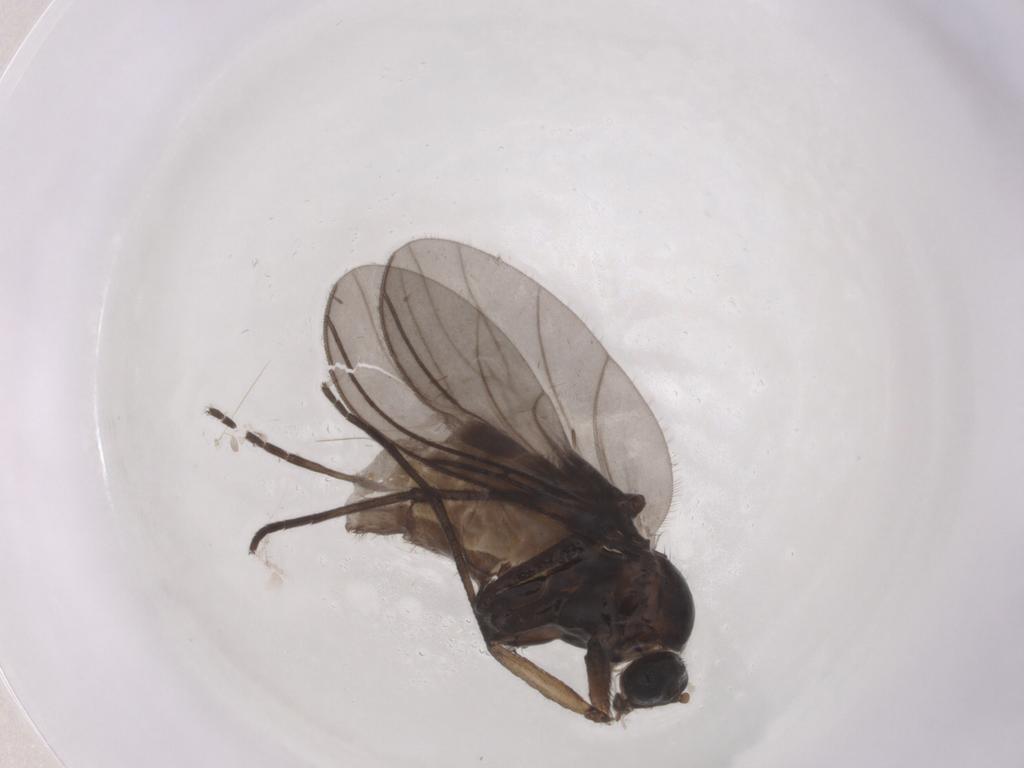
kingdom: Animalia
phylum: Arthropoda
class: Insecta
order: Diptera
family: Sciaridae
